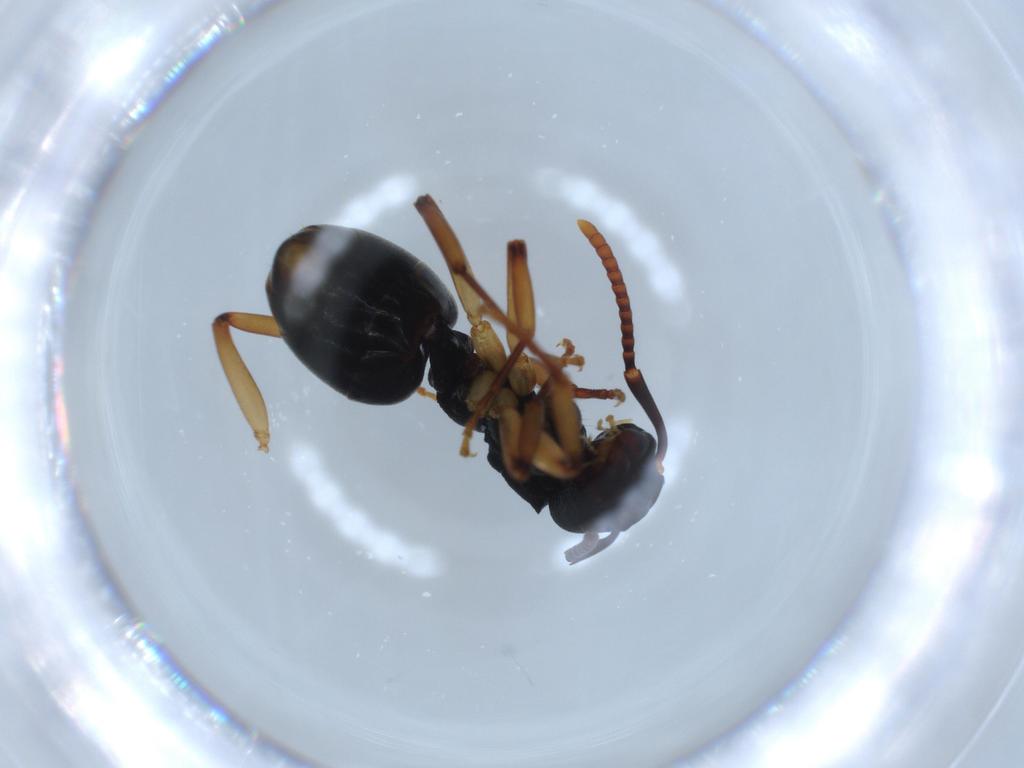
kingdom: Animalia
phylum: Arthropoda
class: Insecta
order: Hymenoptera
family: Formicidae
